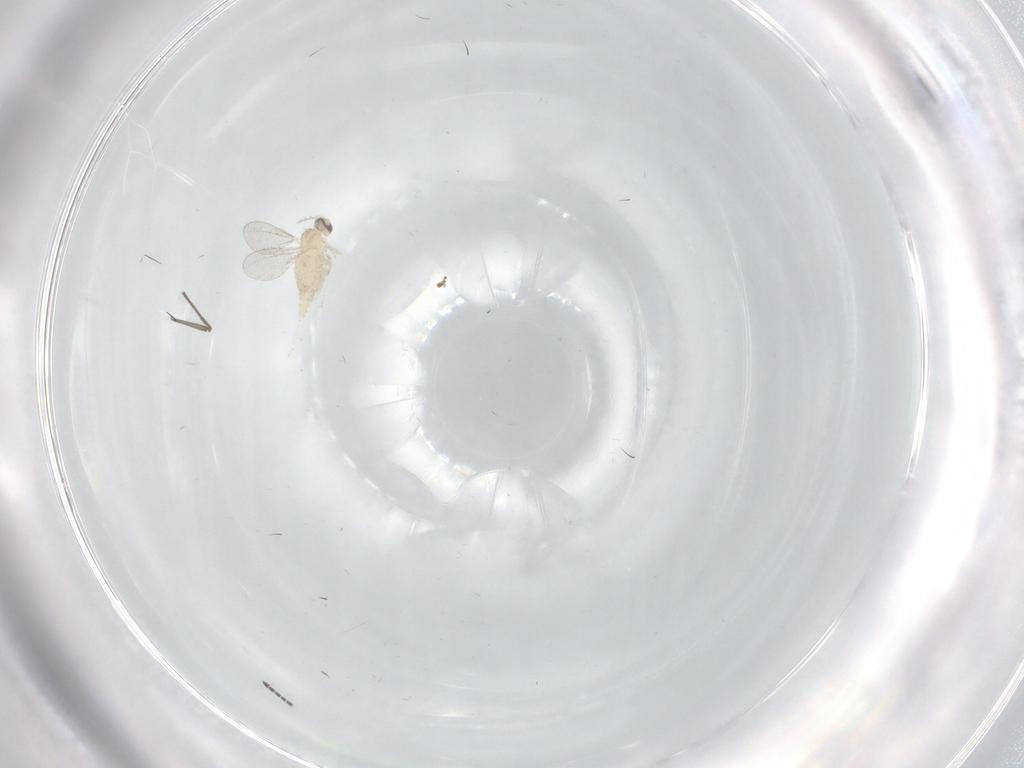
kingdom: Animalia
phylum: Arthropoda
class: Insecta
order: Diptera
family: Cecidomyiidae
